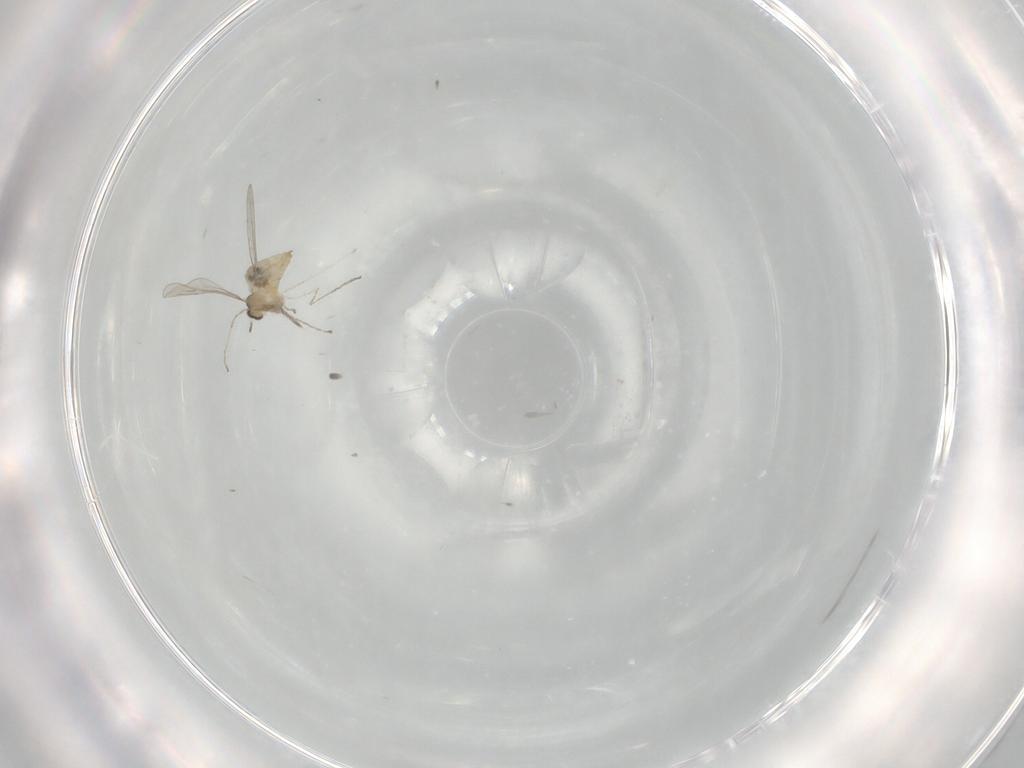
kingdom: Animalia
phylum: Arthropoda
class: Insecta
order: Diptera
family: Cecidomyiidae
